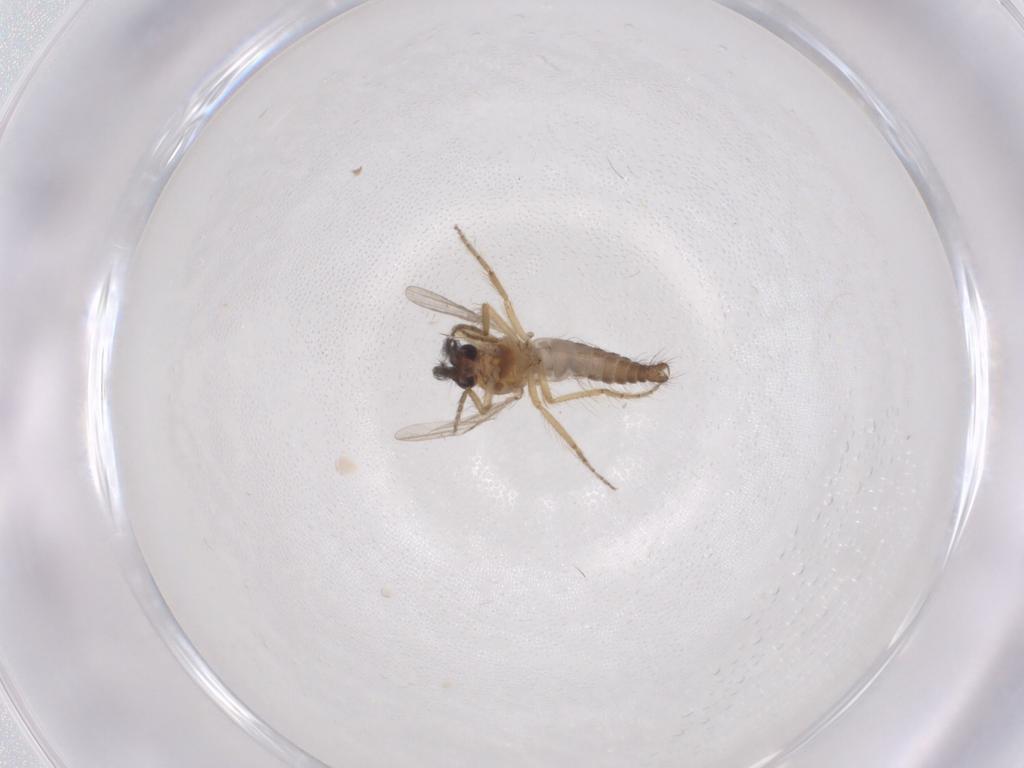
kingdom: Animalia
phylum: Arthropoda
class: Insecta
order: Diptera
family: Ceratopogonidae
